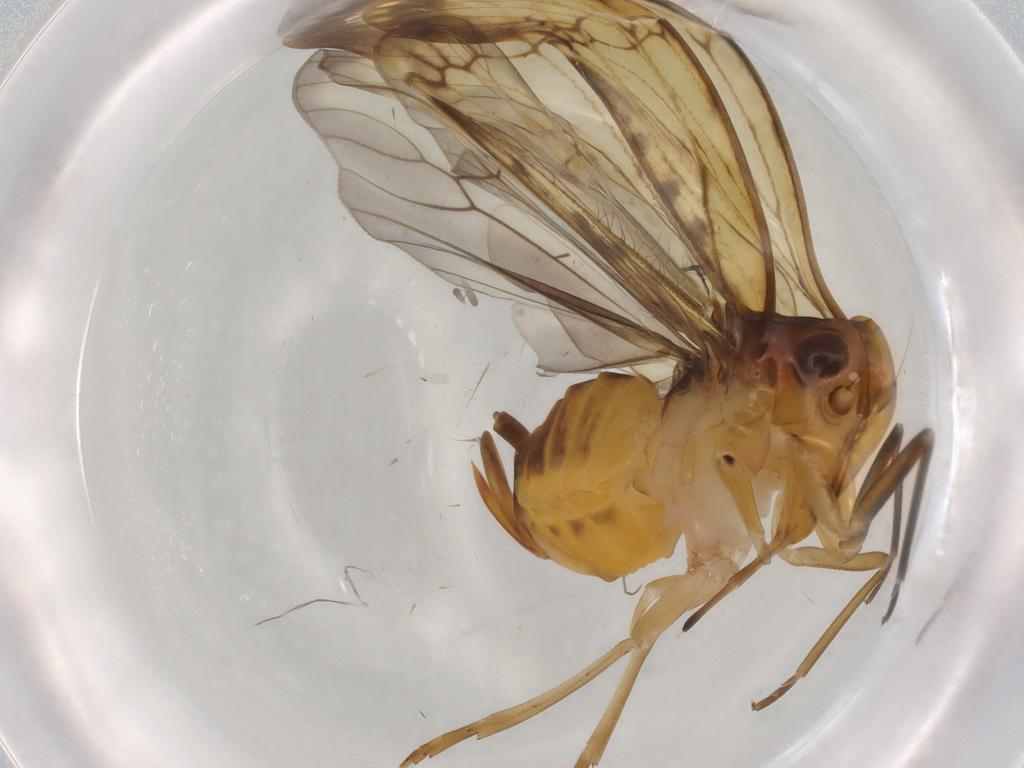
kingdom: Animalia
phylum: Arthropoda
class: Insecta
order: Hemiptera
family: Cixiidae
